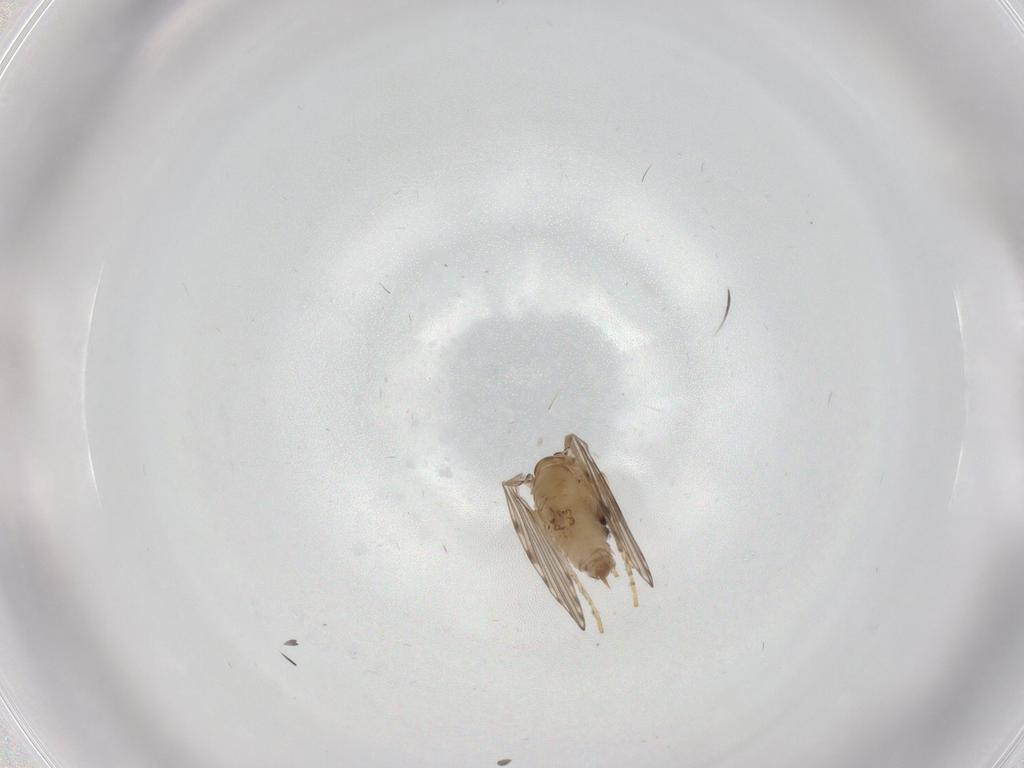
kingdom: Animalia
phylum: Arthropoda
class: Insecta
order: Diptera
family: Psychodidae
